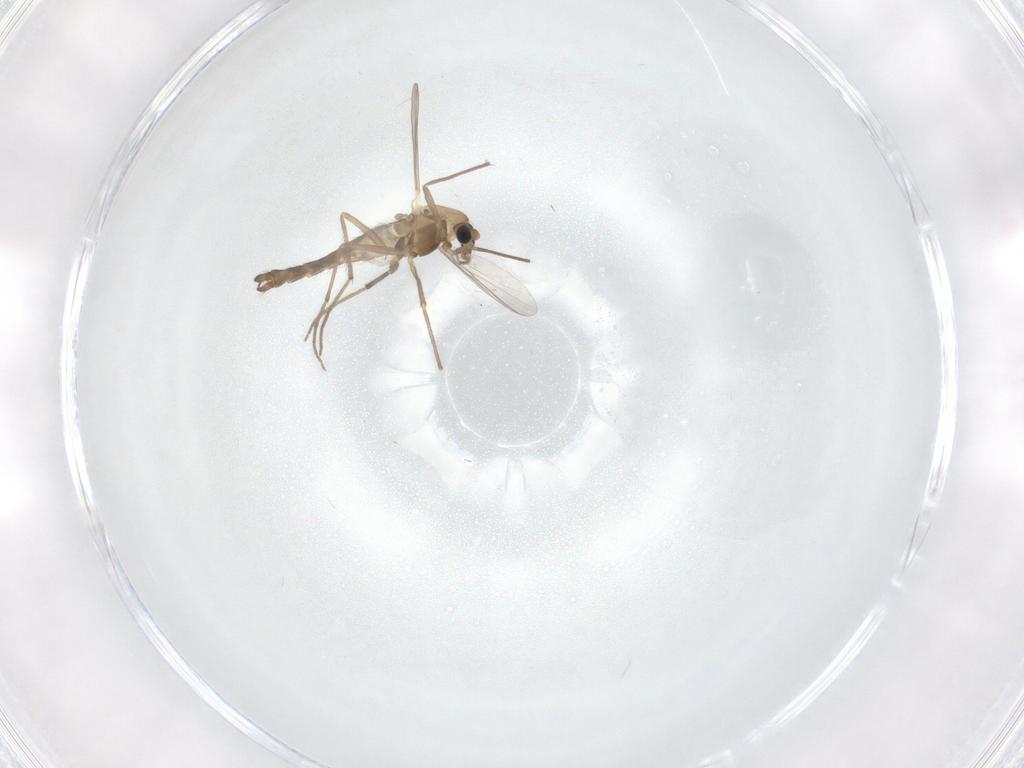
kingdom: Animalia
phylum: Arthropoda
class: Insecta
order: Diptera
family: Chironomidae
